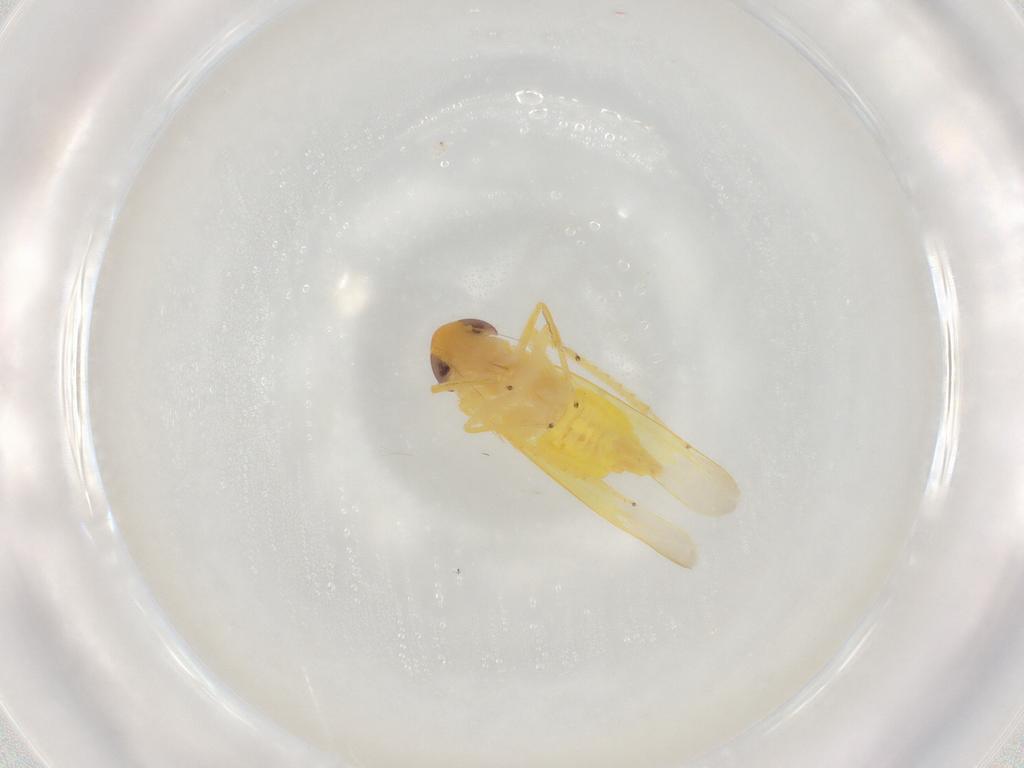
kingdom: Animalia
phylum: Arthropoda
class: Insecta
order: Hemiptera
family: Cicadellidae
